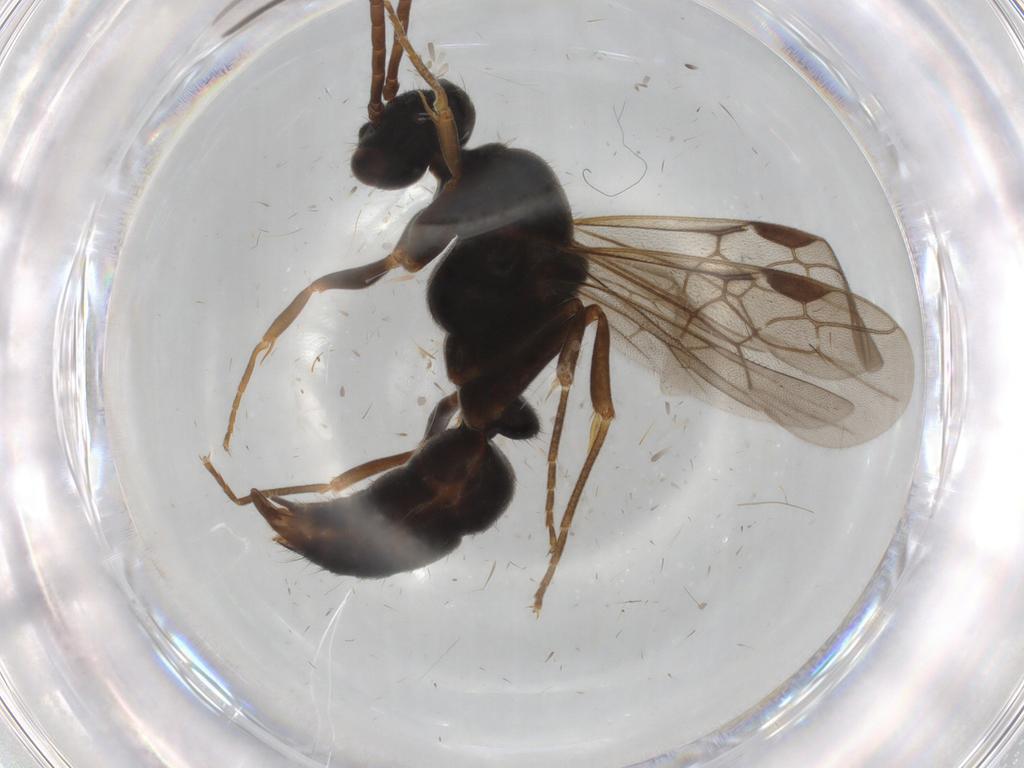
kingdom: Animalia
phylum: Arthropoda
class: Insecta
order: Hymenoptera
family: Formicidae
